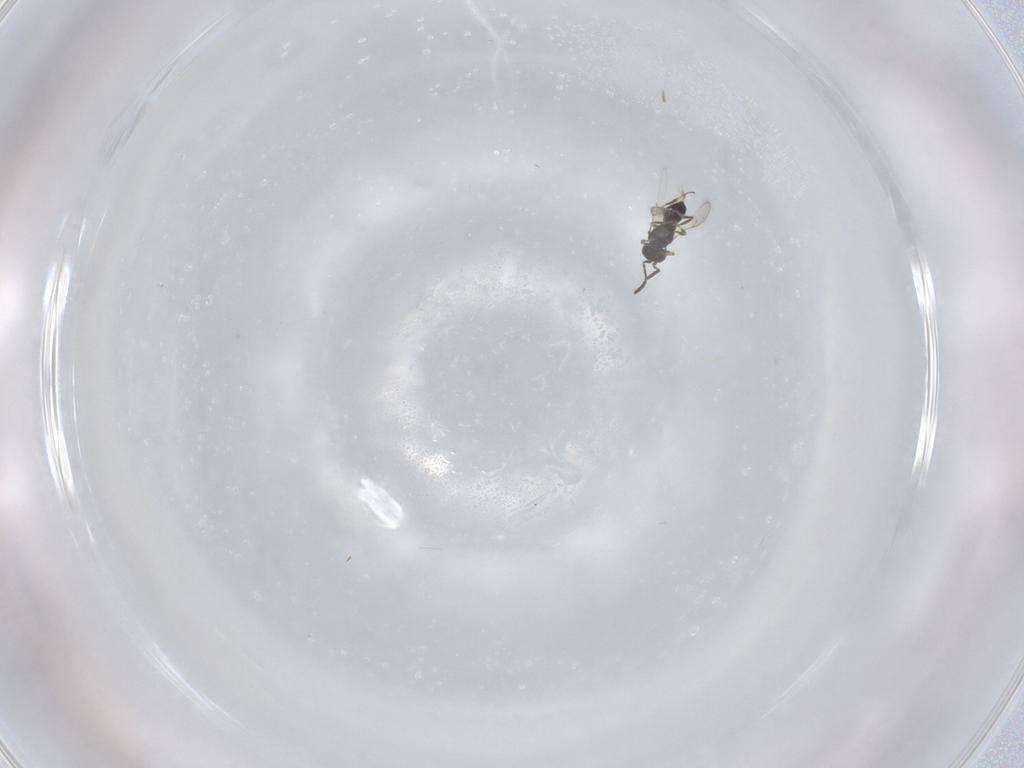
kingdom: Animalia
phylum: Arthropoda
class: Insecta
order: Hymenoptera
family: Scelionidae
